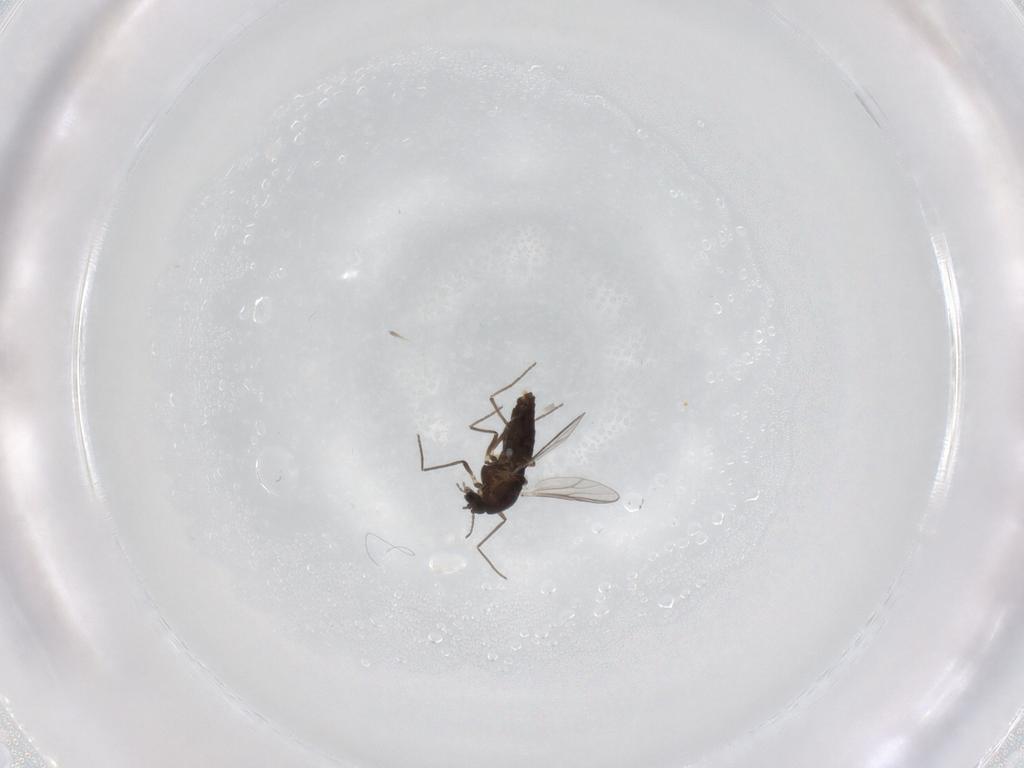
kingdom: Animalia
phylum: Arthropoda
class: Insecta
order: Diptera
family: Chironomidae
